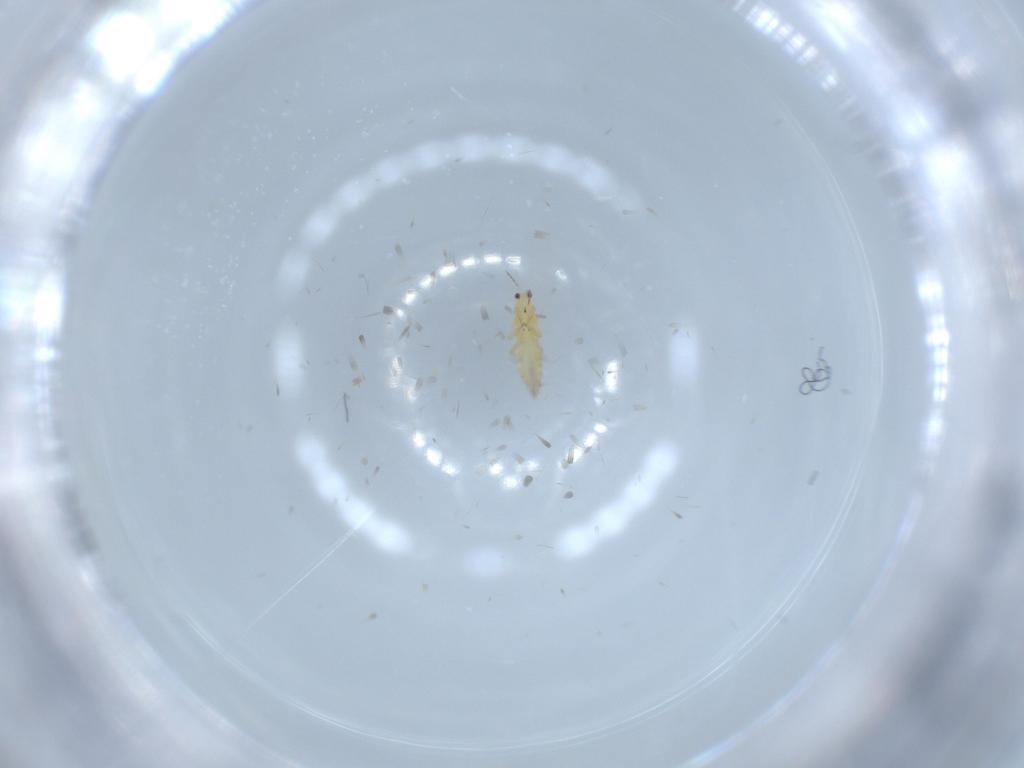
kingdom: Animalia
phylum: Arthropoda
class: Insecta
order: Thysanoptera
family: Thripidae
